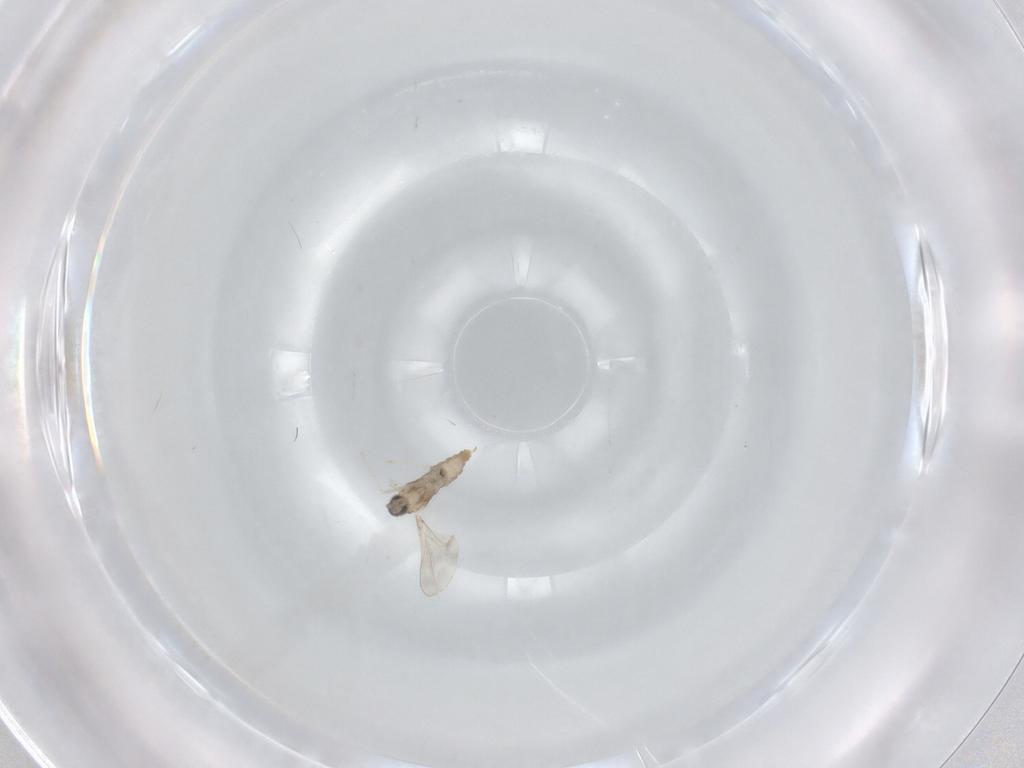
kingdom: Animalia
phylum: Arthropoda
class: Insecta
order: Diptera
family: Cecidomyiidae
